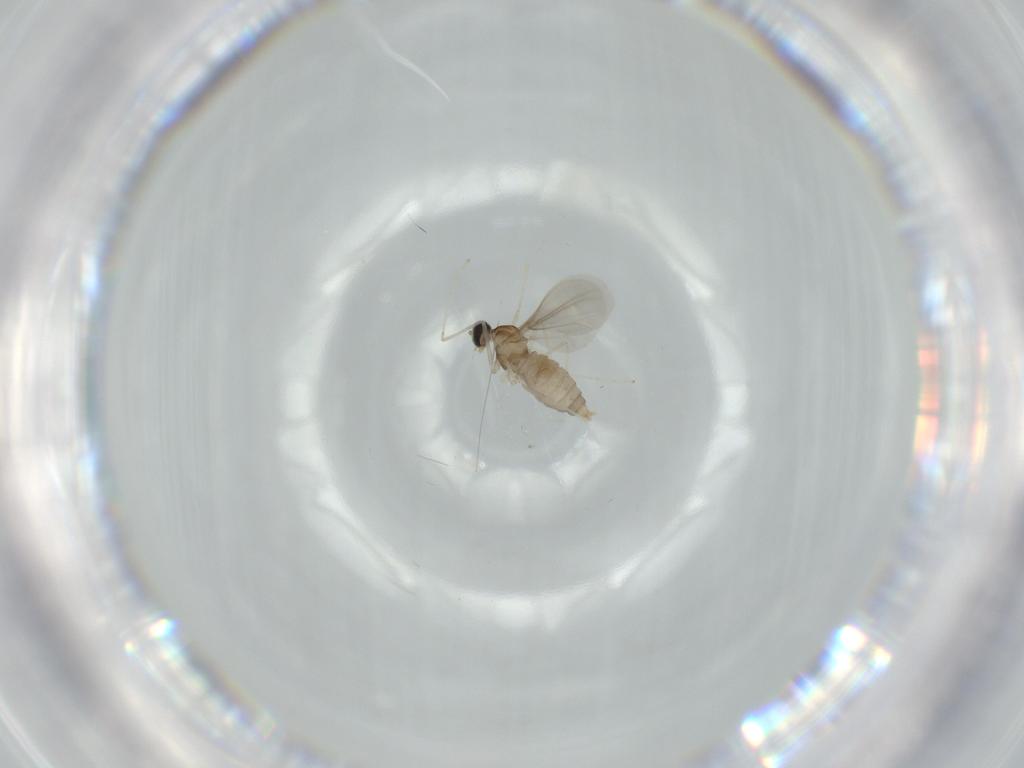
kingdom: Animalia
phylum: Arthropoda
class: Insecta
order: Diptera
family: Cecidomyiidae
